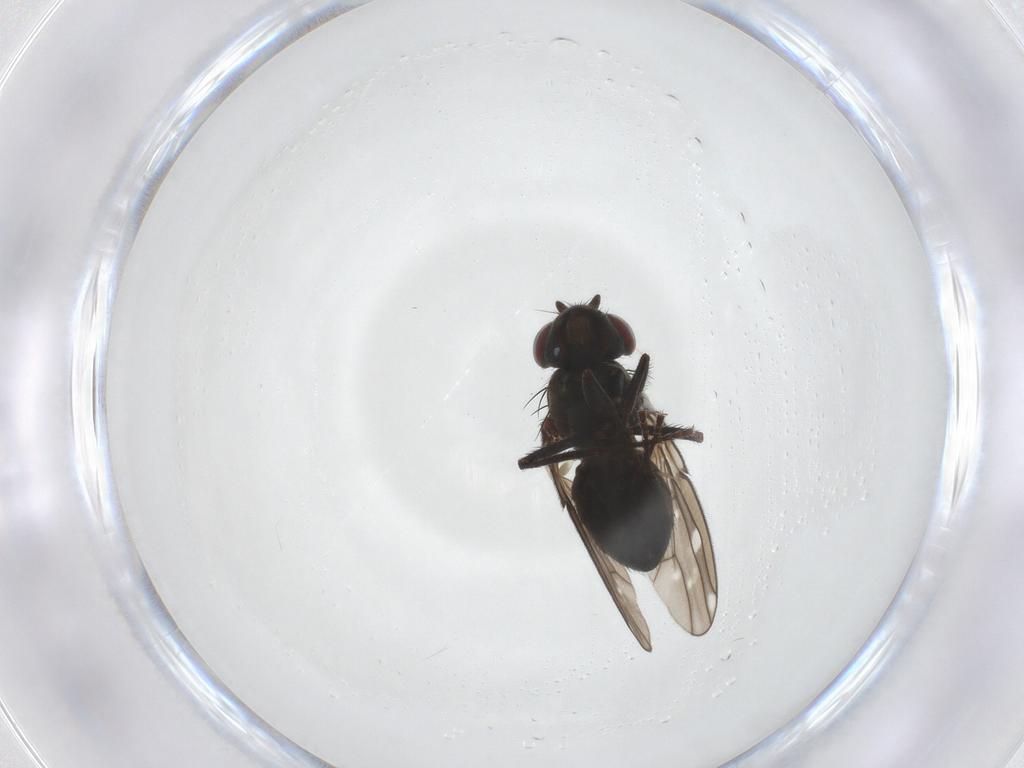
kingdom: Animalia
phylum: Arthropoda
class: Insecta
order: Diptera
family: Ephydridae
